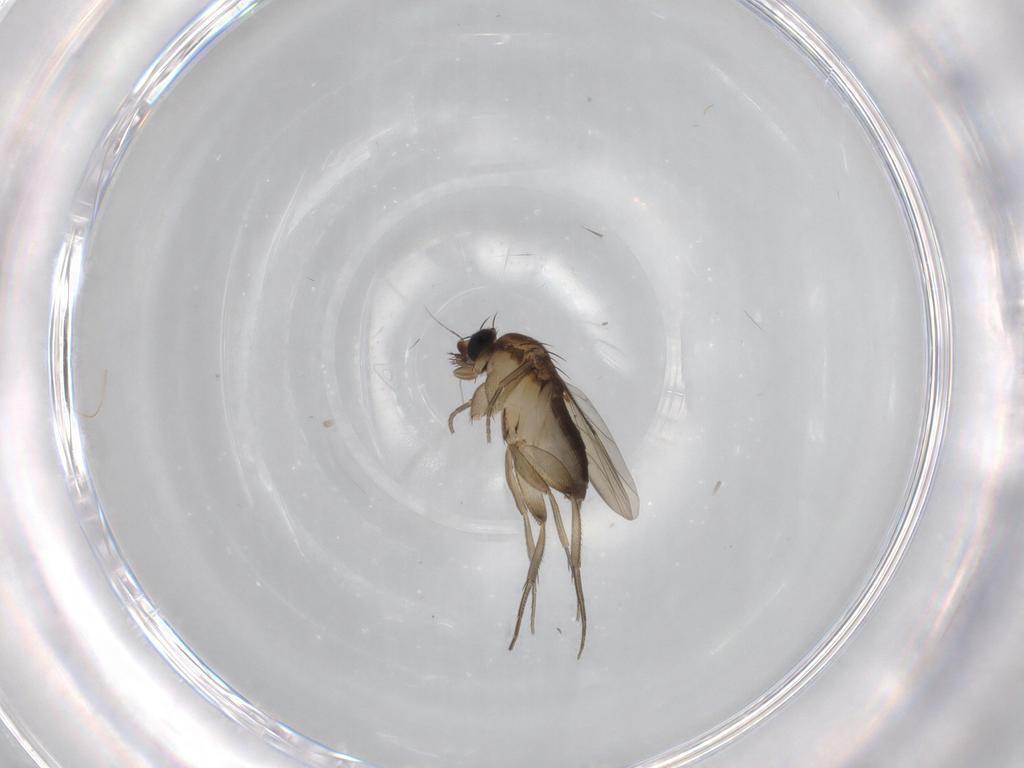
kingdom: Animalia
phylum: Arthropoda
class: Insecta
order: Diptera
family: Phoridae
